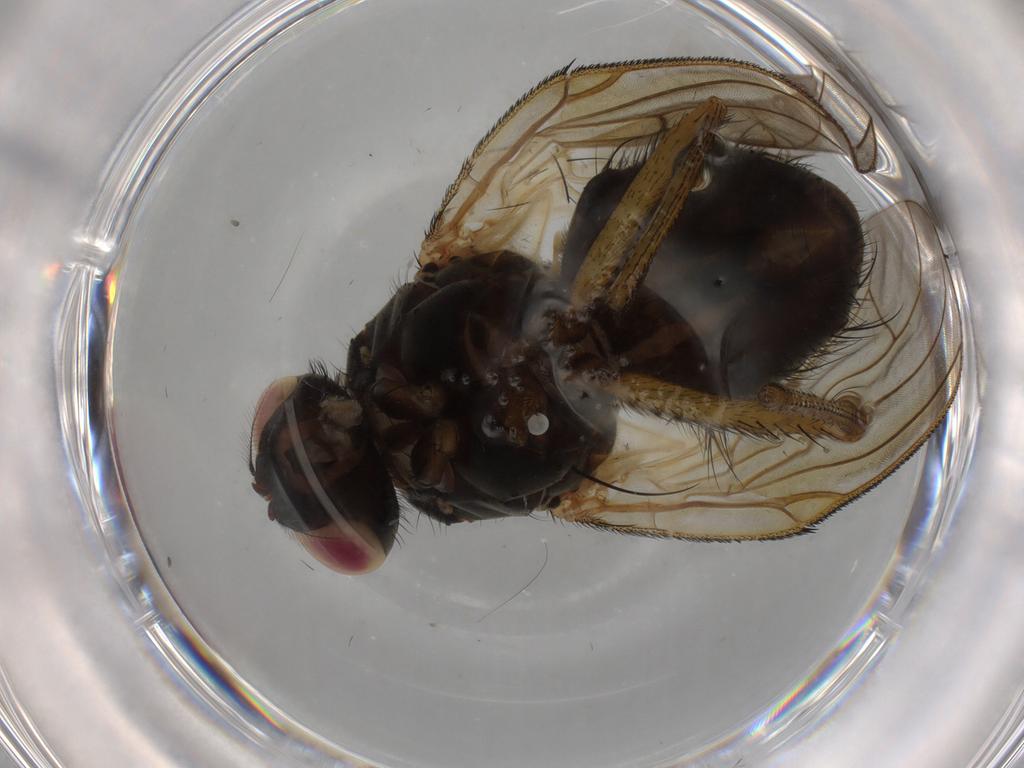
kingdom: Animalia
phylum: Arthropoda
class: Insecta
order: Diptera
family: Muscidae
